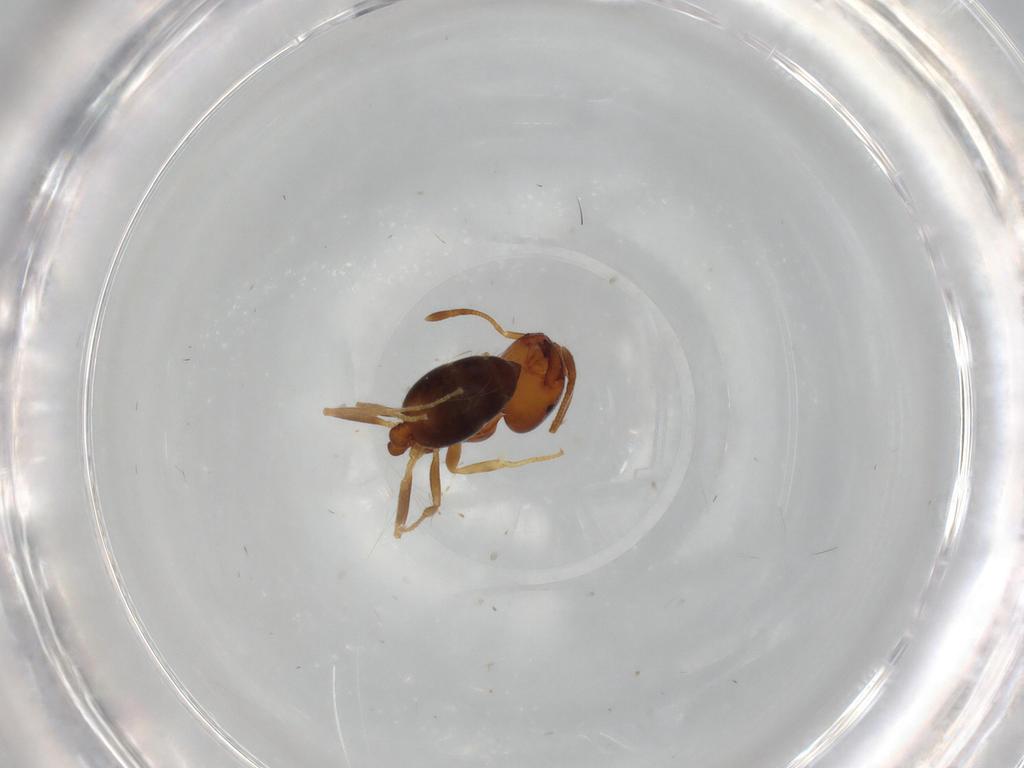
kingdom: Animalia
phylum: Arthropoda
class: Insecta
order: Hymenoptera
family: Formicidae
